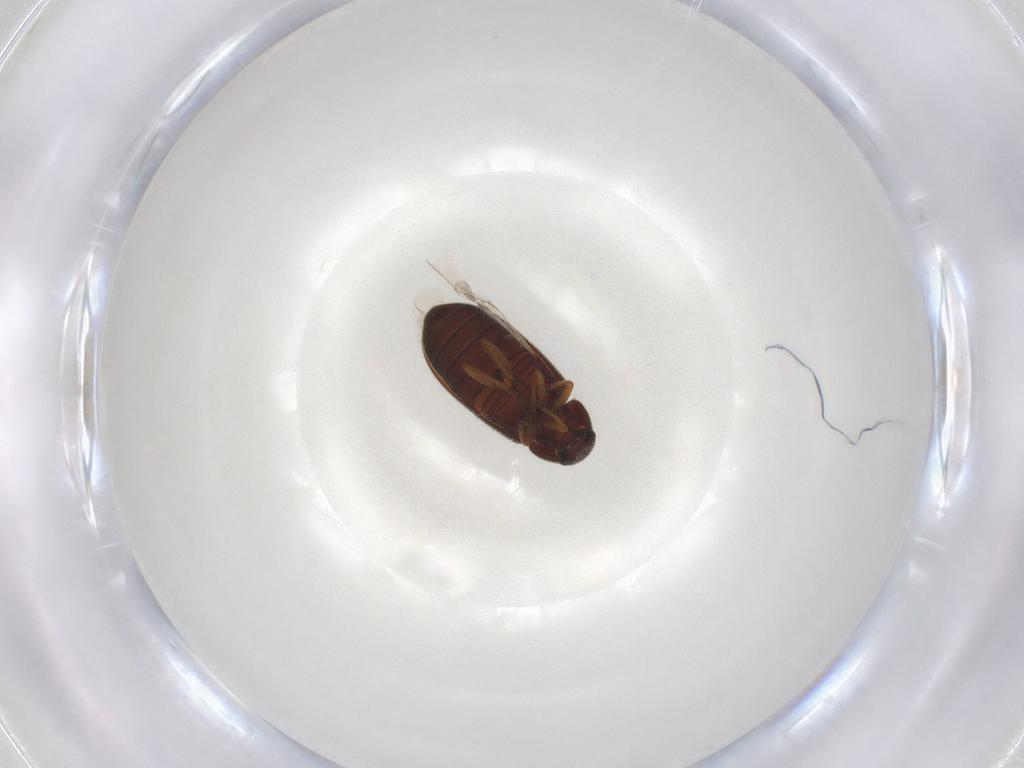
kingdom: Animalia
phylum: Arthropoda
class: Insecta
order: Coleoptera
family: Rhadalidae
